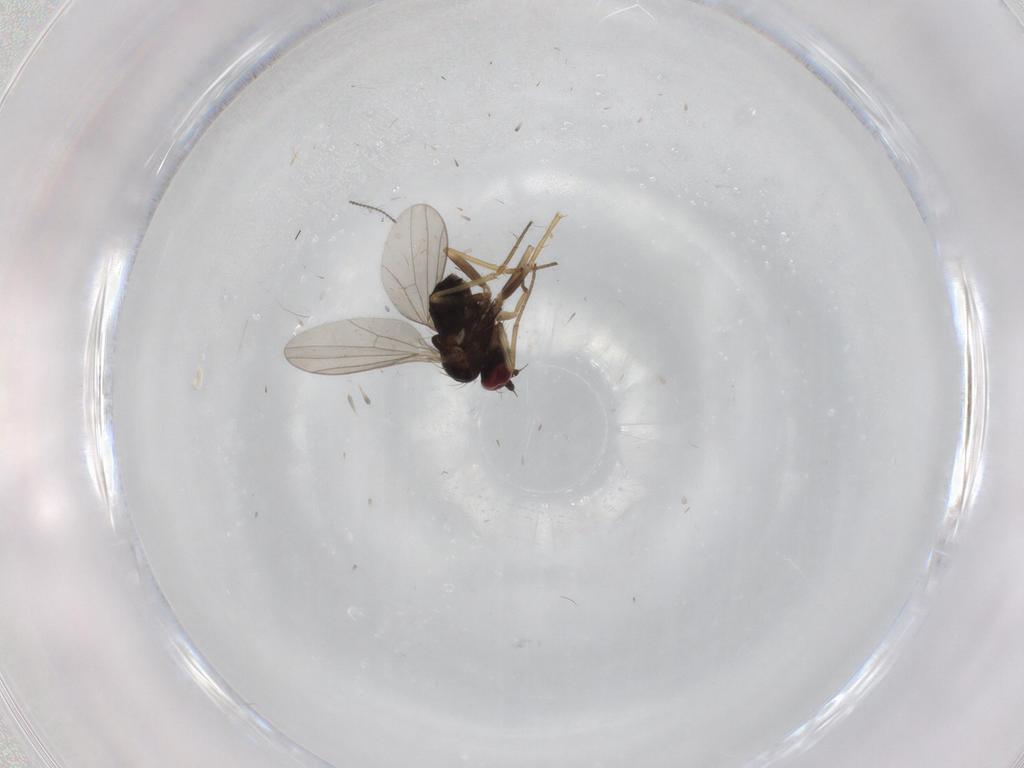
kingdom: Animalia
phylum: Arthropoda
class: Insecta
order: Diptera
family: Ceratopogonidae
